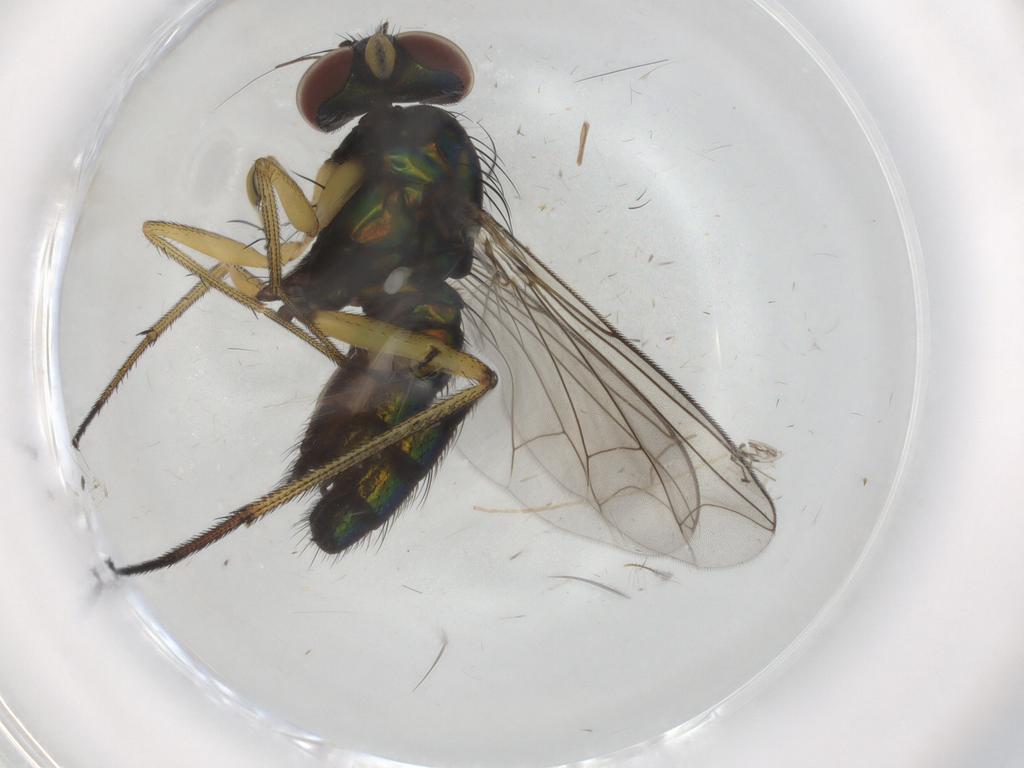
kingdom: Animalia
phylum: Arthropoda
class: Insecta
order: Diptera
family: Dolichopodidae
